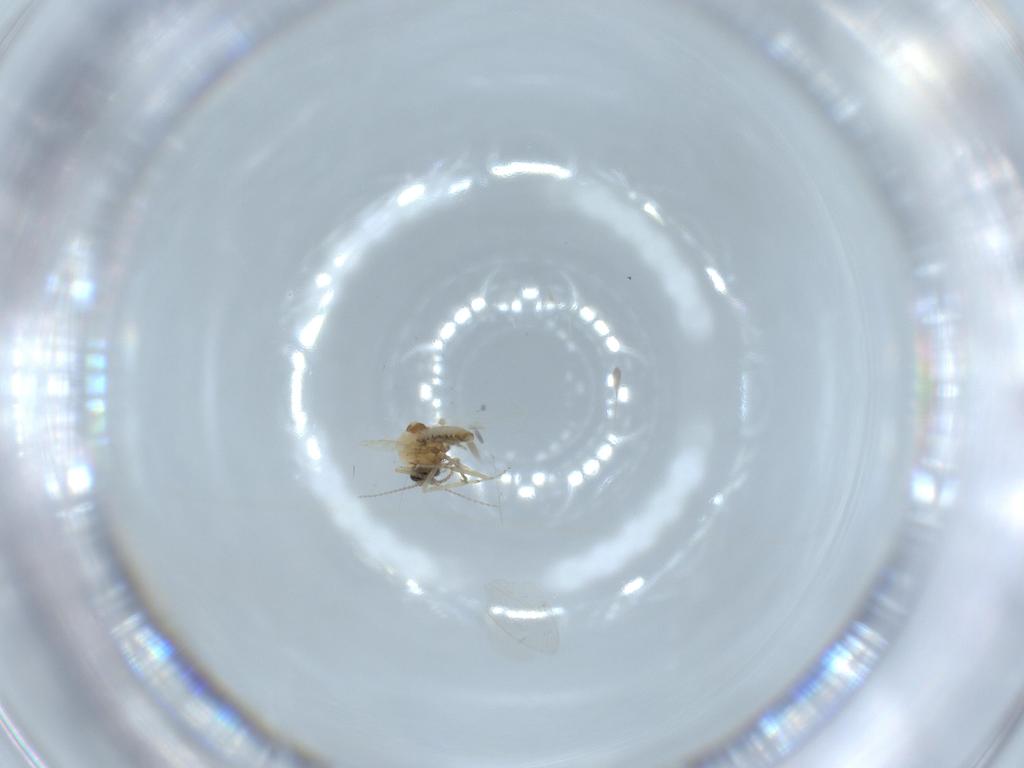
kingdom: Animalia
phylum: Arthropoda
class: Insecta
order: Diptera
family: Ceratopogonidae
